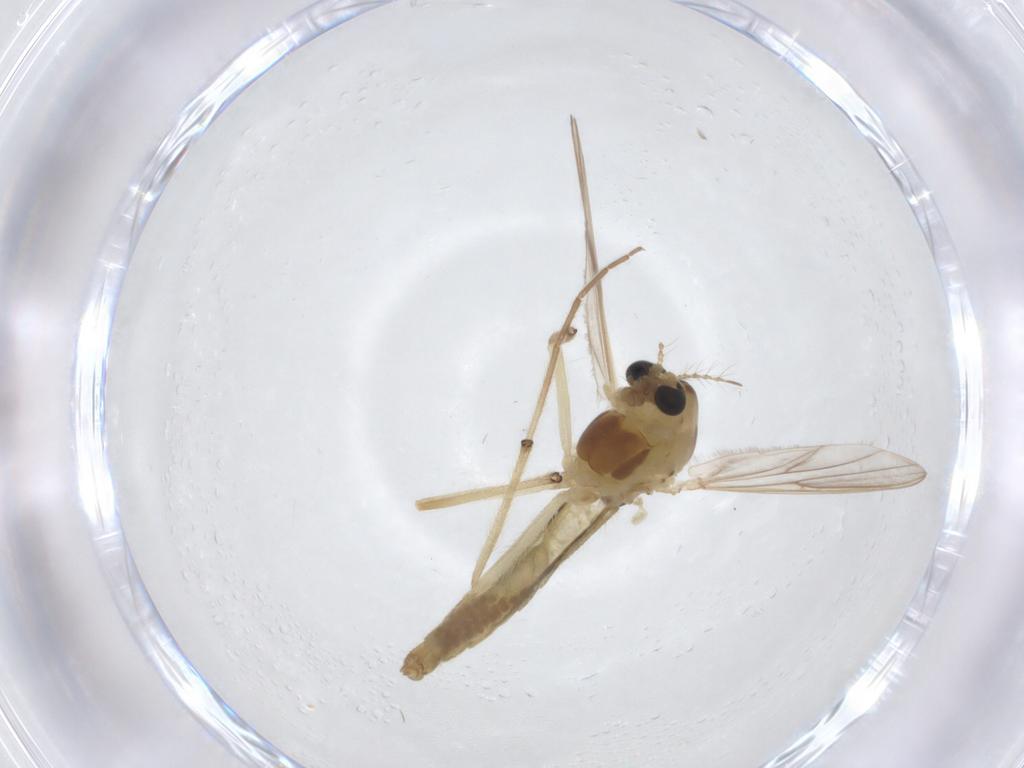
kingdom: Animalia
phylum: Arthropoda
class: Insecta
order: Diptera
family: Chironomidae
